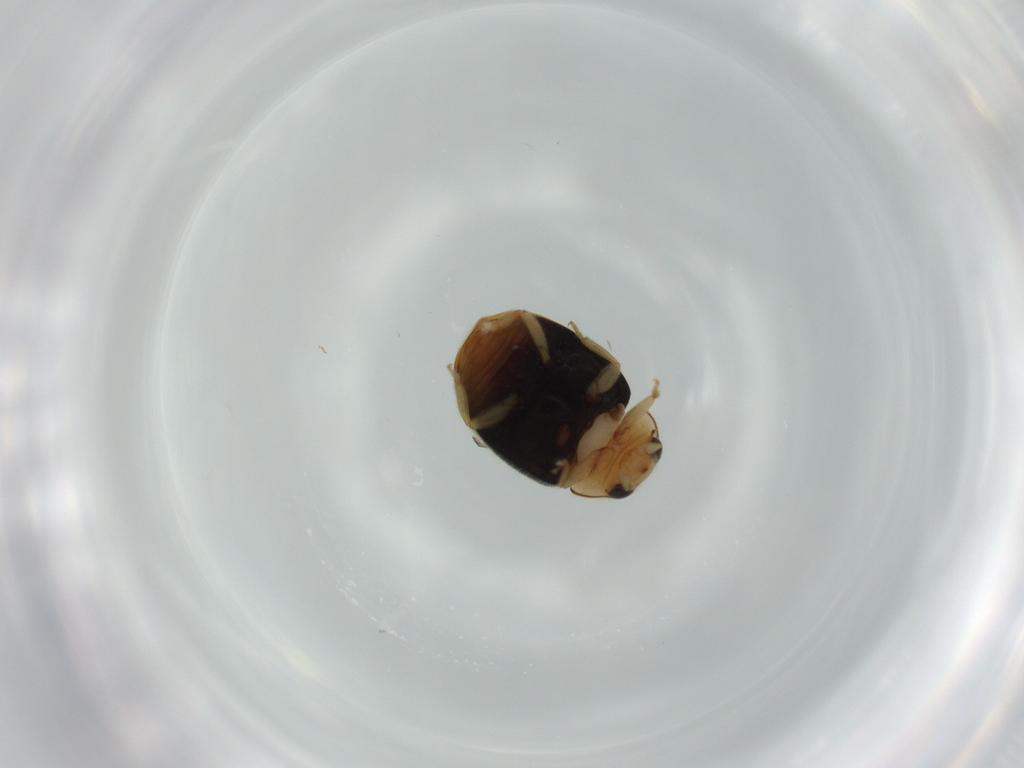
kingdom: Animalia
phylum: Arthropoda
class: Insecta
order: Coleoptera
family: Bostrichidae
